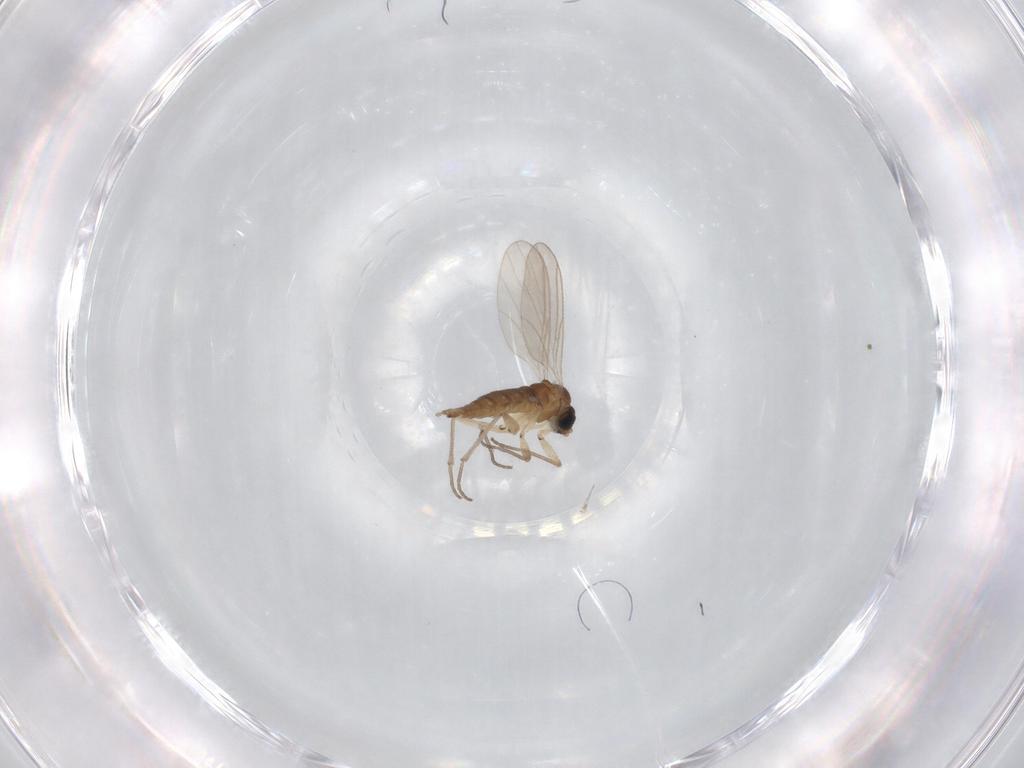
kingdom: Animalia
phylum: Arthropoda
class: Insecta
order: Diptera
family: Sciaridae
